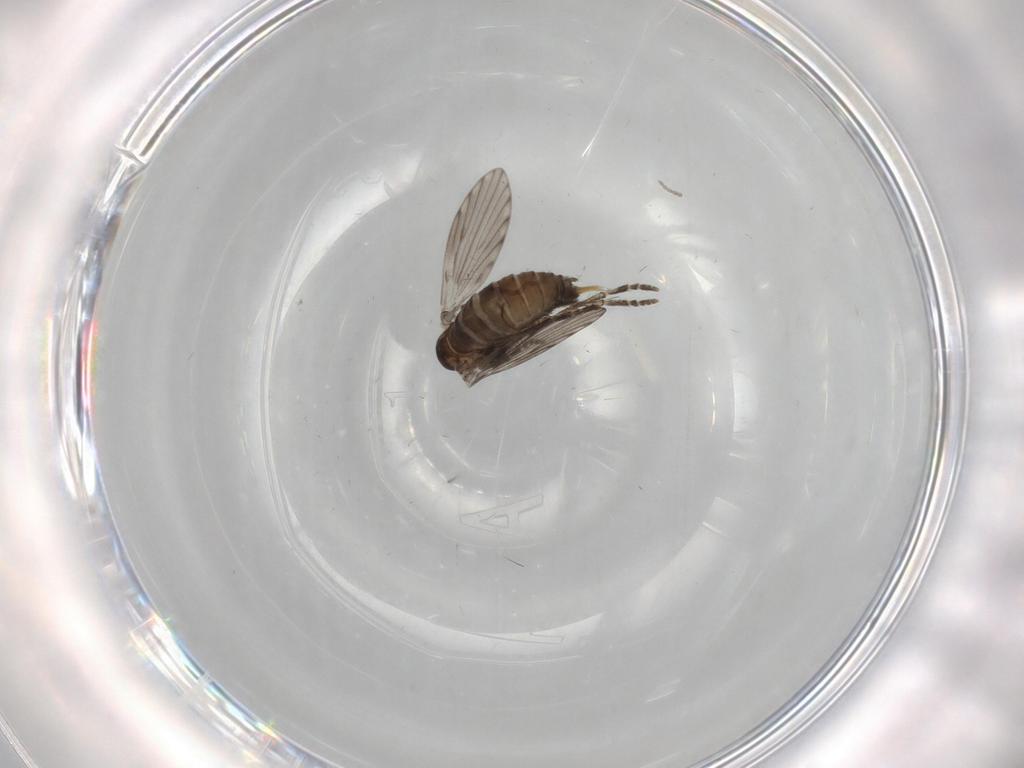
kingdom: Animalia
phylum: Arthropoda
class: Insecta
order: Diptera
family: Psychodidae
